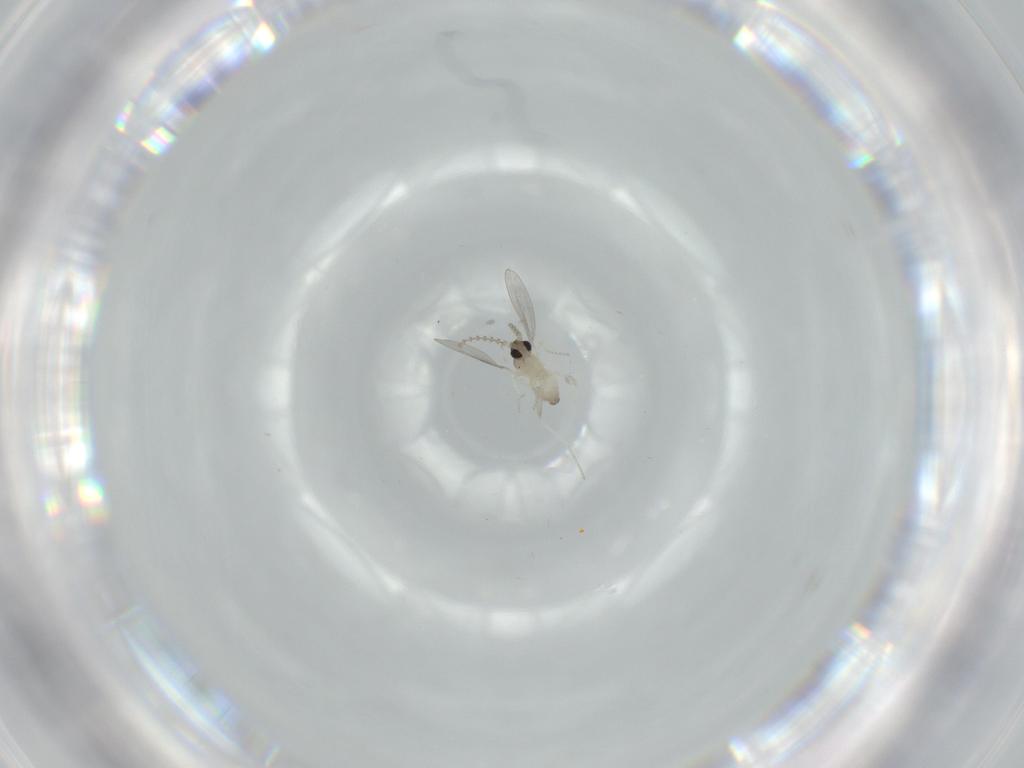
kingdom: Animalia
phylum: Arthropoda
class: Insecta
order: Diptera
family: Cecidomyiidae
